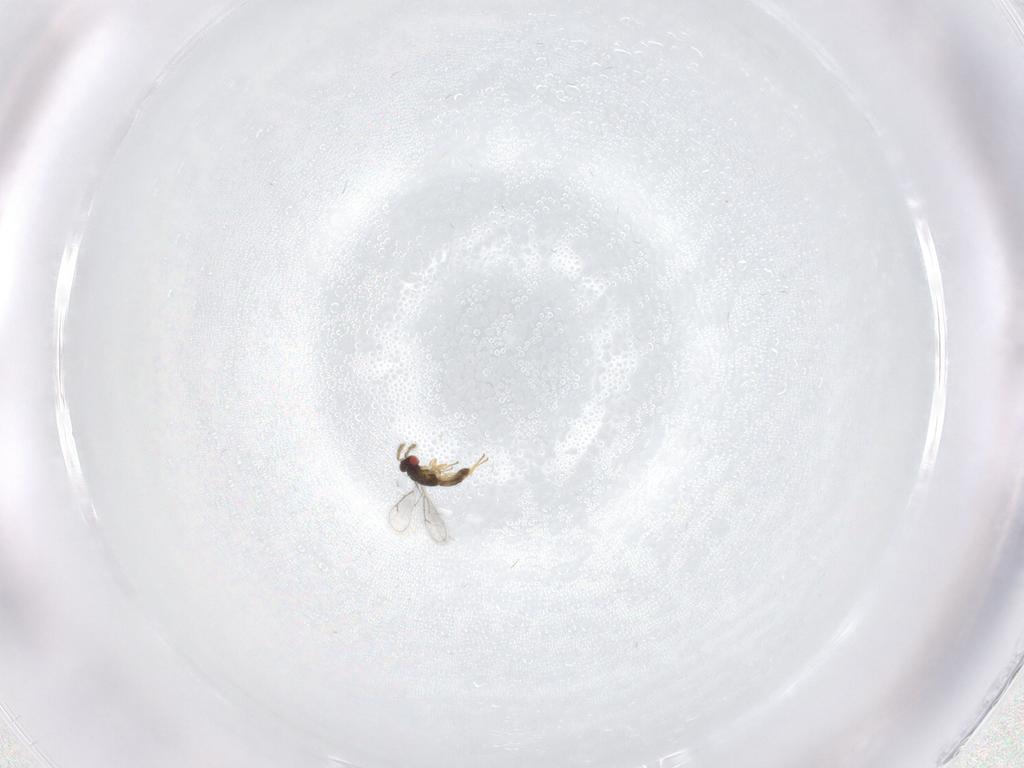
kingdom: Animalia
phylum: Arthropoda
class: Insecta
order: Hymenoptera
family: Eulophidae
